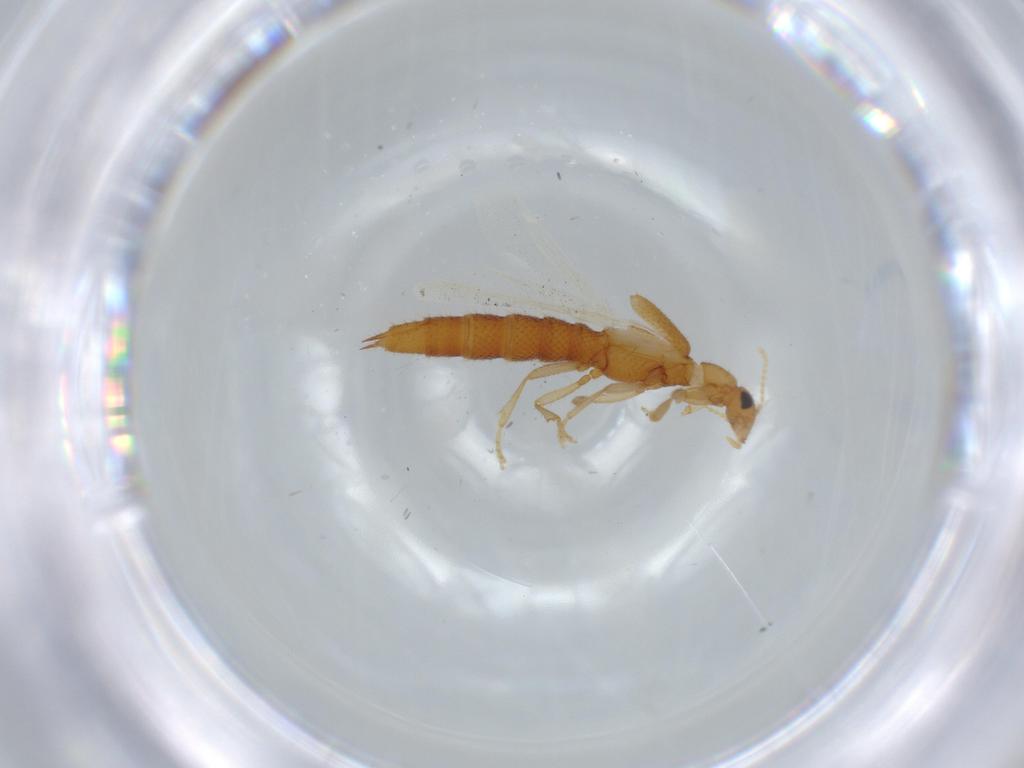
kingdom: Animalia
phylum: Arthropoda
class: Insecta
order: Coleoptera
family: Staphylinidae
